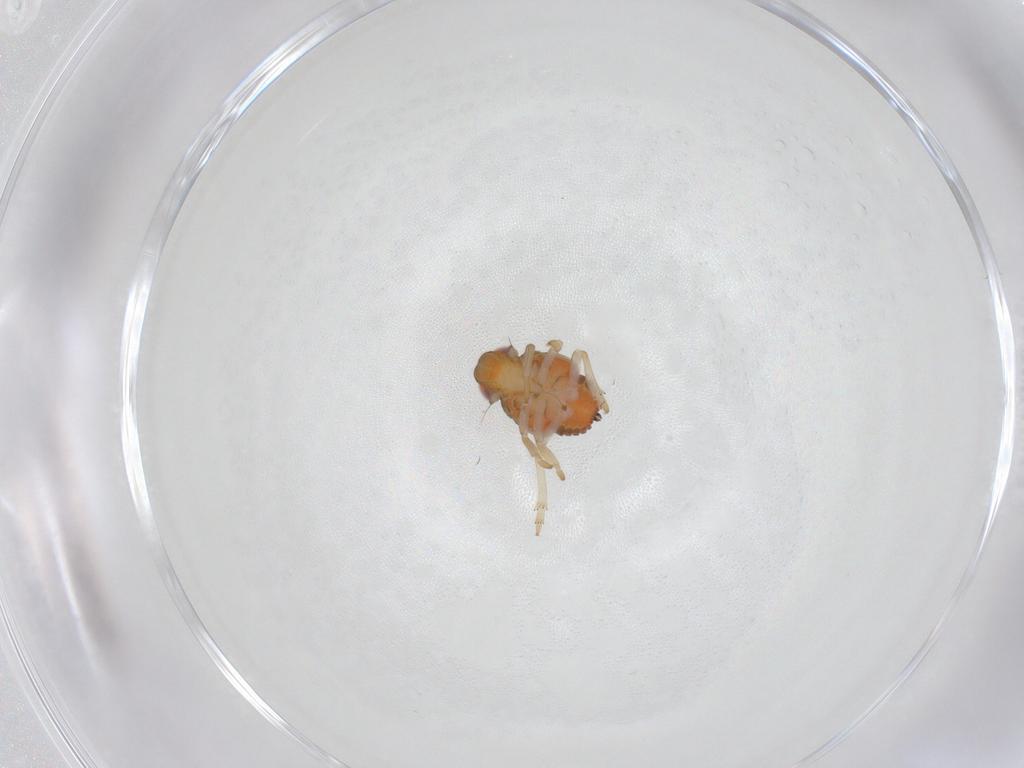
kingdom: Animalia
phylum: Arthropoda
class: Insecta
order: Hemiptera
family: Issidae
